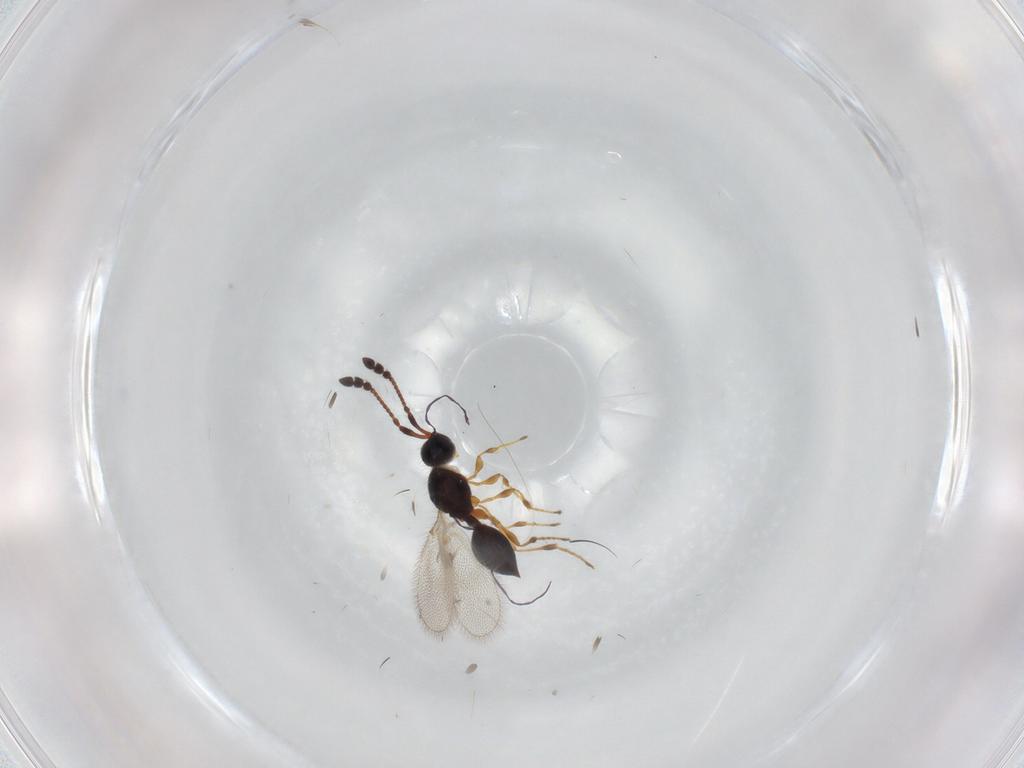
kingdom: Animalia
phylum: Arthropoda
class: Insecta
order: Hymenoptera
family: Diapriidae
